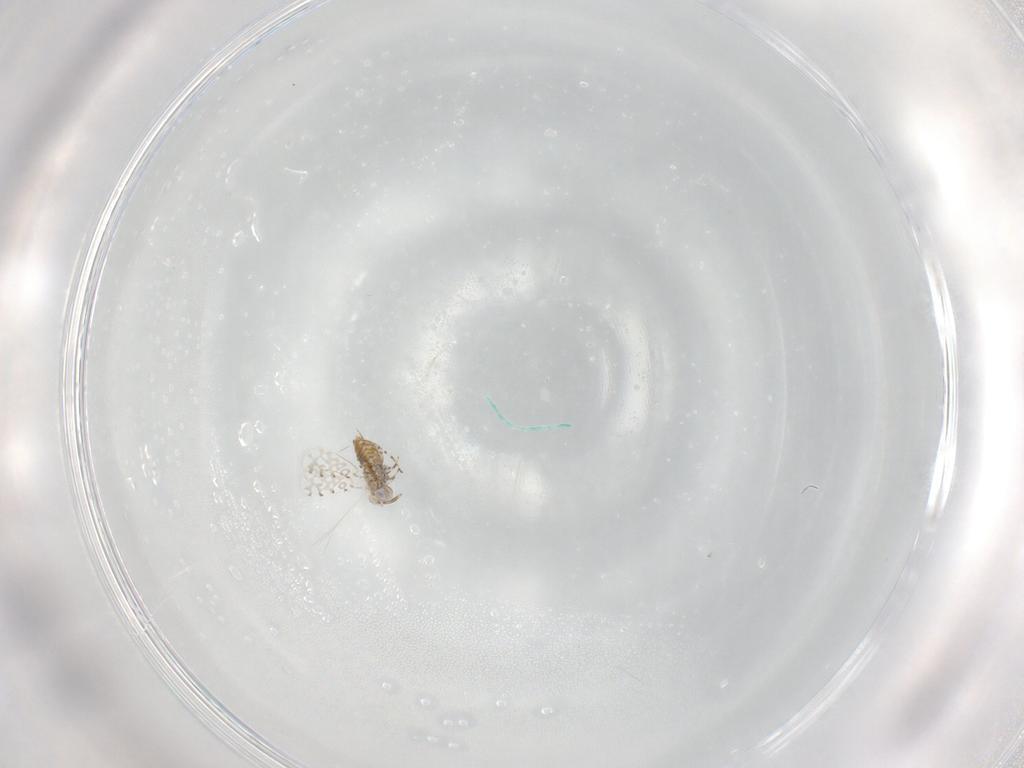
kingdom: Animalia
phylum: Arthropoda
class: Insecta
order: Hymenoptera
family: Aphelinidae
